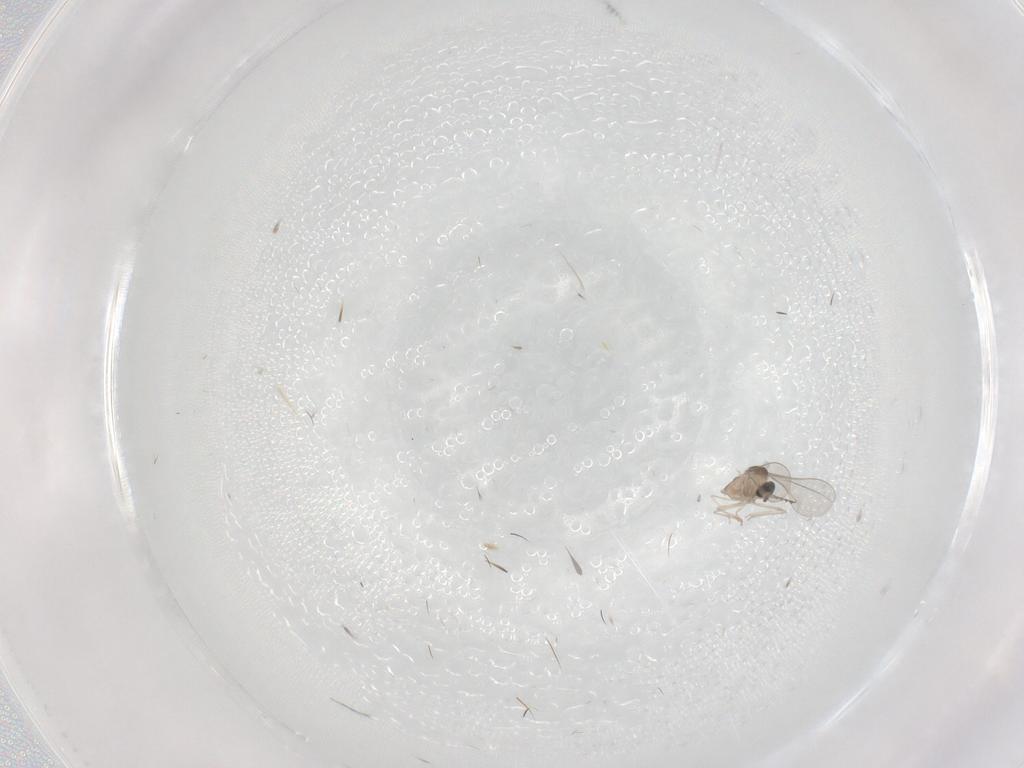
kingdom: Animalia
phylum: Arthropoda
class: Insecta
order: Diptera
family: Cecidomyiidae
